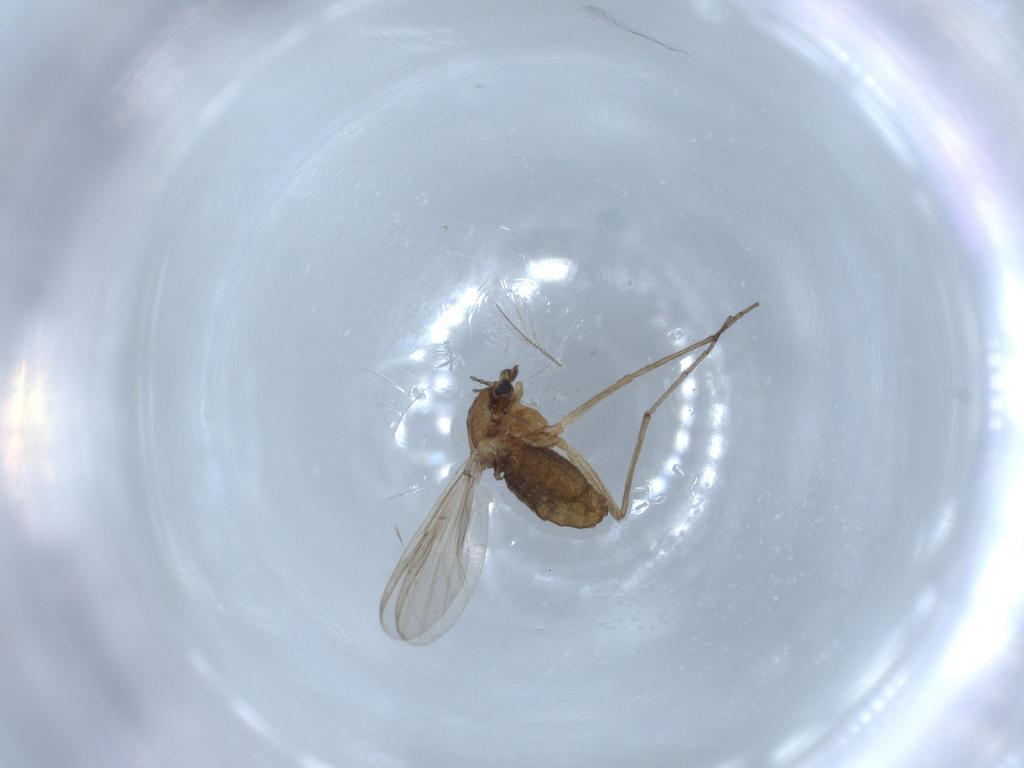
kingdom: Animalia
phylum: Arthropoda
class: Insecta
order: Diptera
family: Chironomidae
